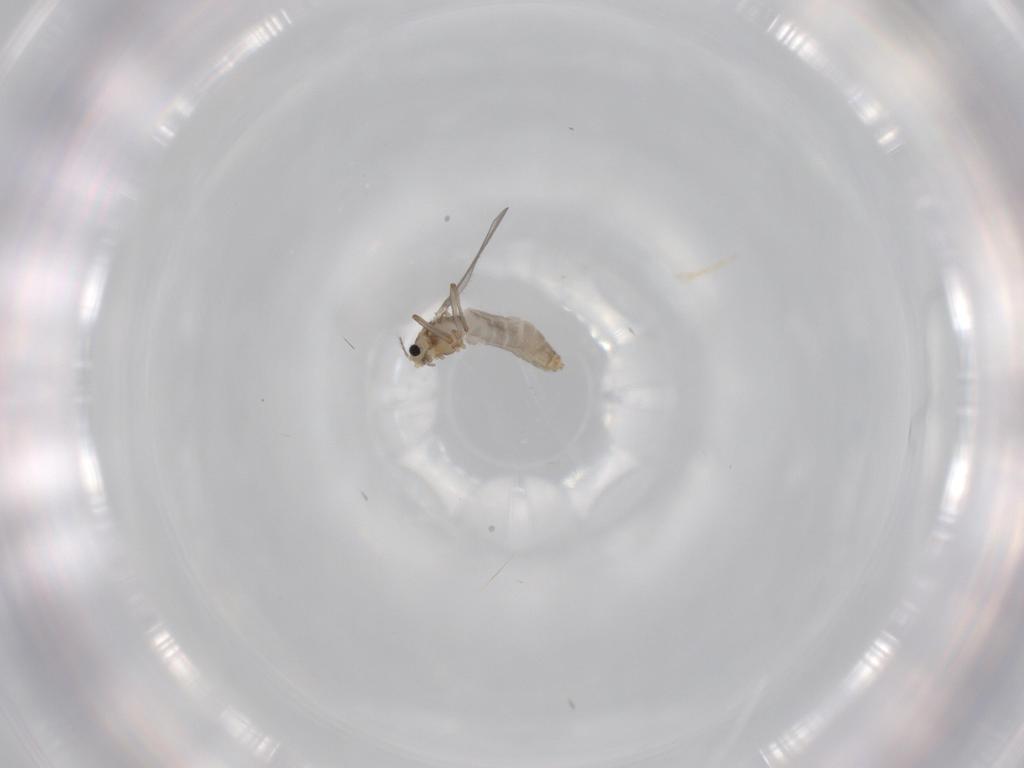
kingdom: Animalia
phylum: Arthropoda
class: Insecta
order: Diptera
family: Chironomidae
